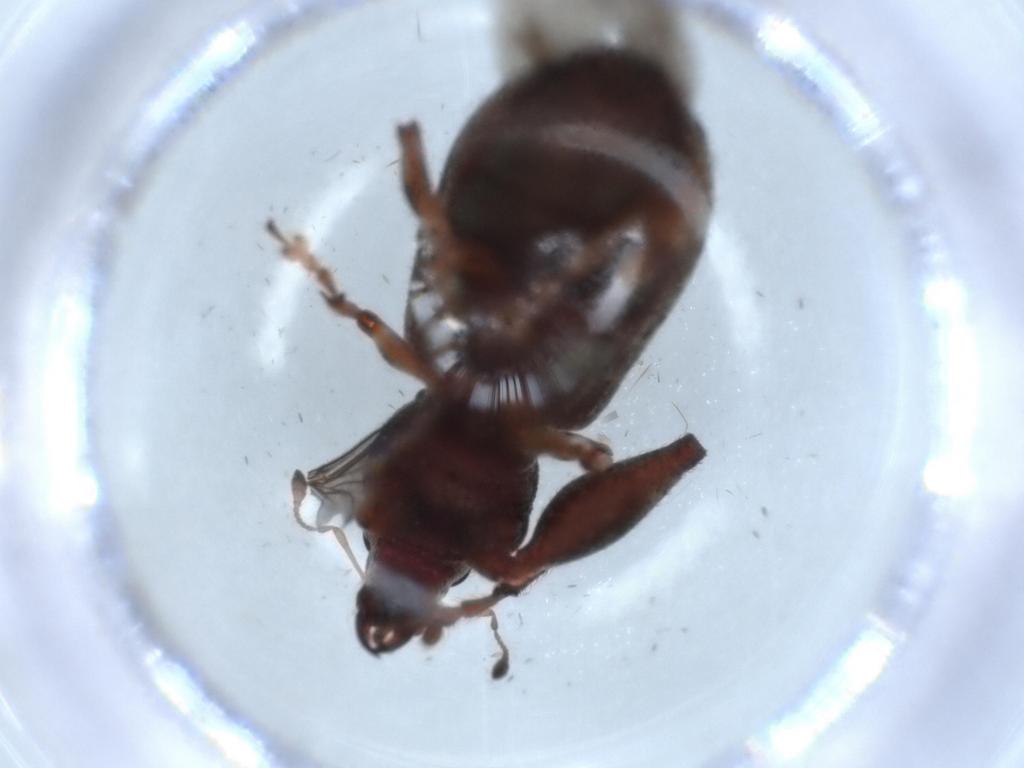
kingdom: Animalia
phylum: Arthropoda
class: Insecta
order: Coleoptera
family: Curculionidae
